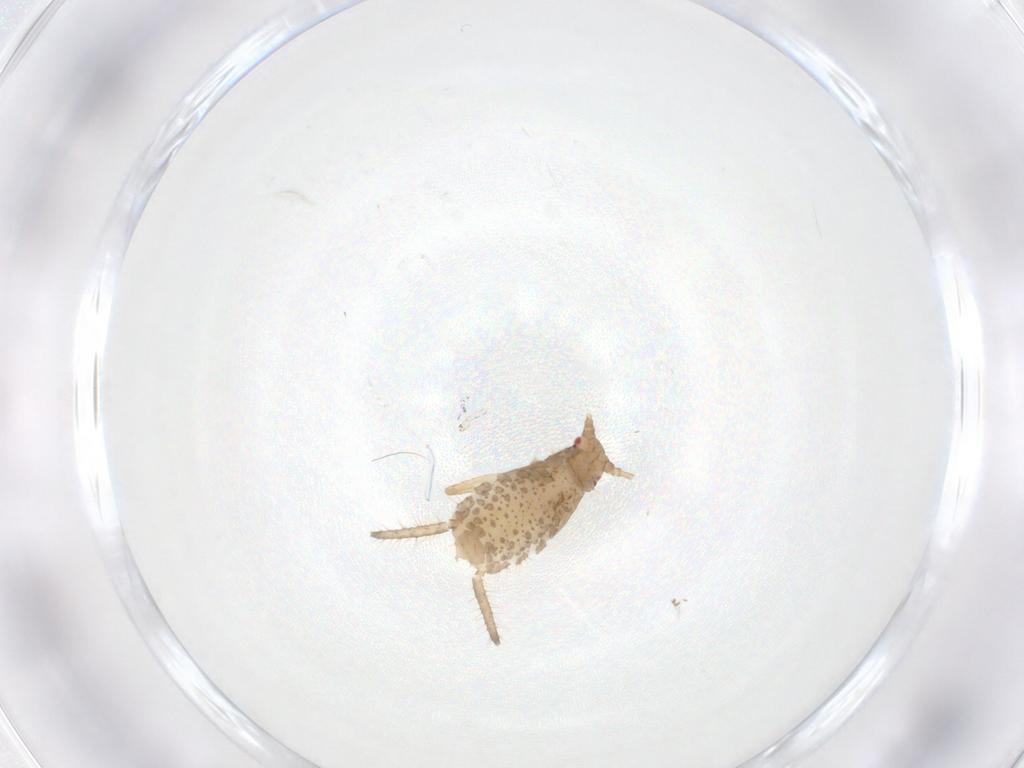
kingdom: Animalia
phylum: Arthropoda
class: Insecta
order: Hemiptera
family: Aphididae
